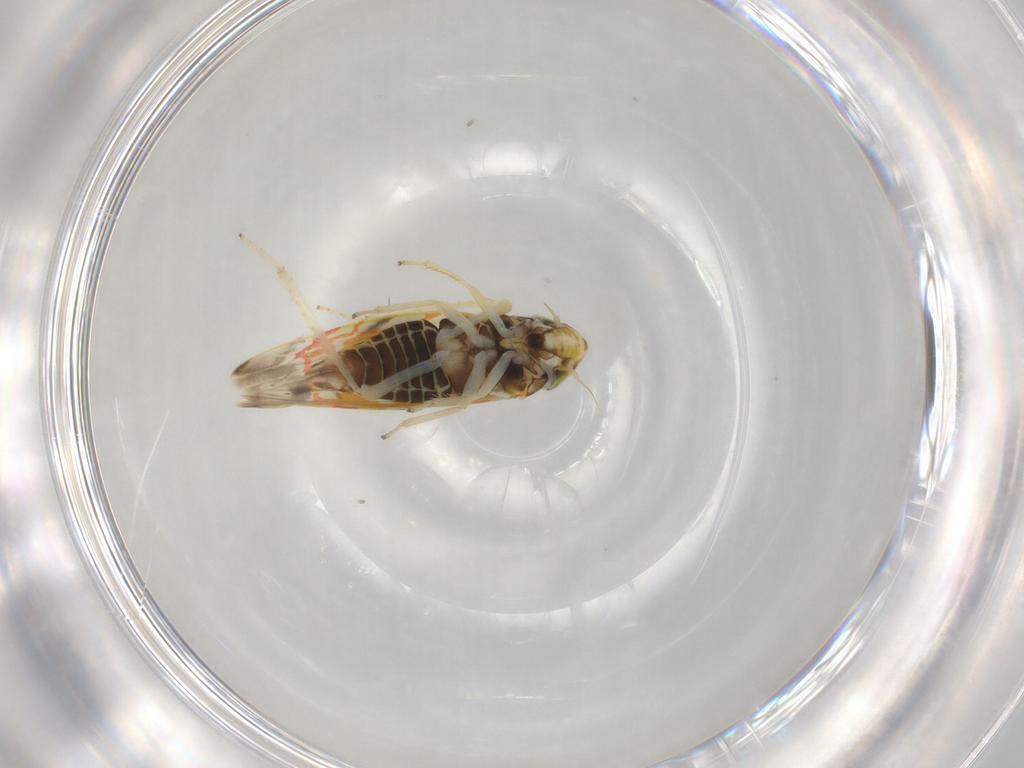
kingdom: Animalia
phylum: Arthropoda
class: Insecta
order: Hemiptera
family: Cicadellidae
